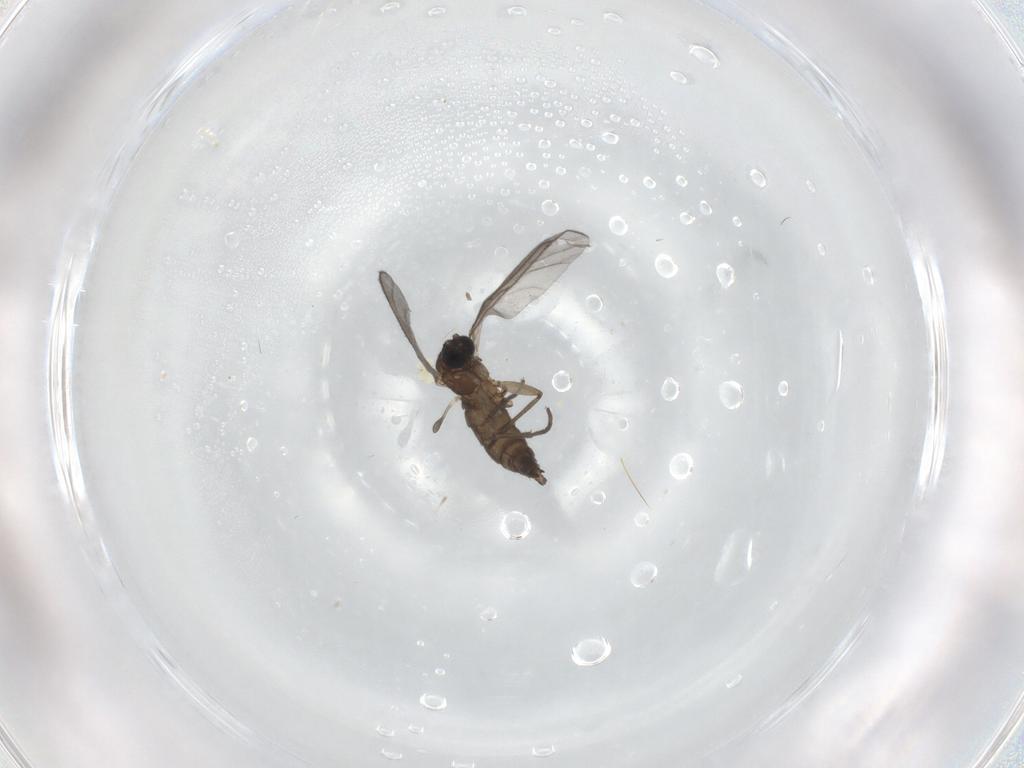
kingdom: Animalia
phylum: Arthropoda
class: Insecta
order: Diptera
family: Sciaridae
